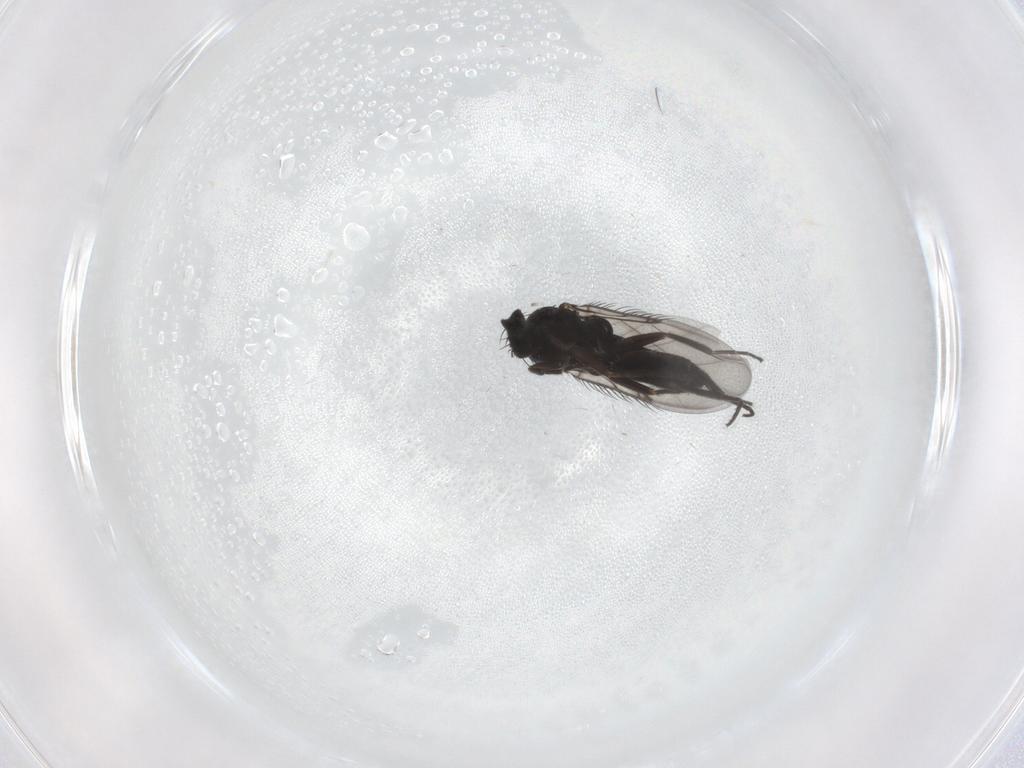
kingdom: Animalia
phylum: Arthropoda
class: Insecta
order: Diptera
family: Phoridae
